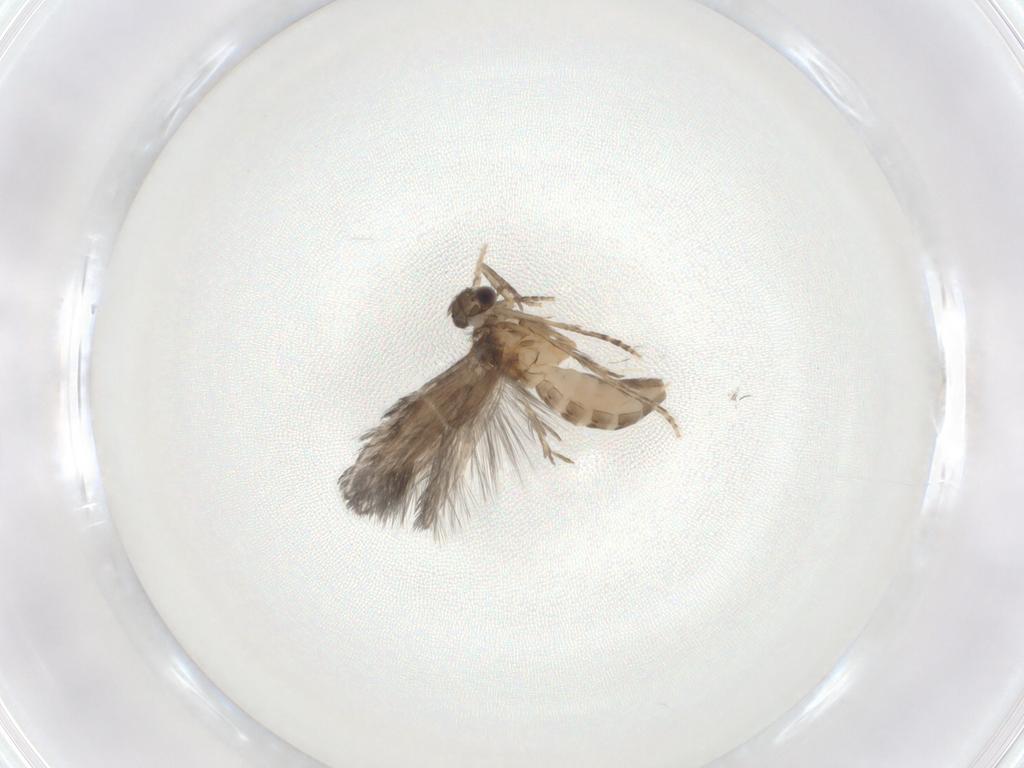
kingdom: Animalia
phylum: Arthropoda
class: Insecta
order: Trichoptera
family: Hydroptilidae
